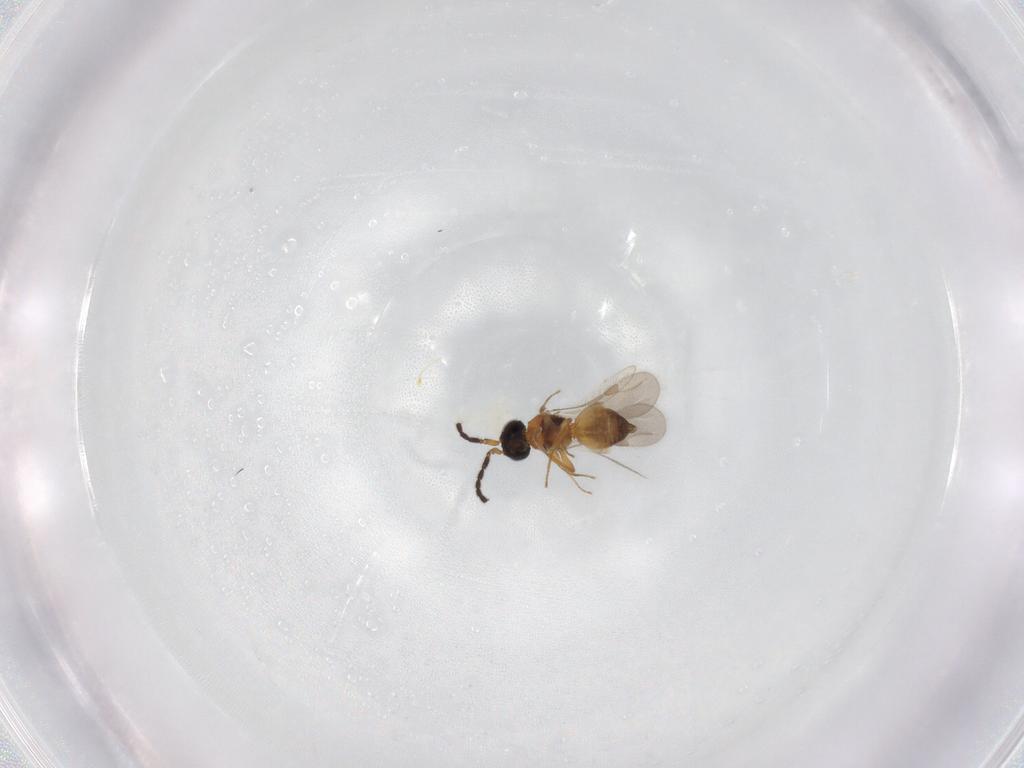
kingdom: Animalia
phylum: Arthropoda
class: Insecta
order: Hymenoptera
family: Megaspilidae
